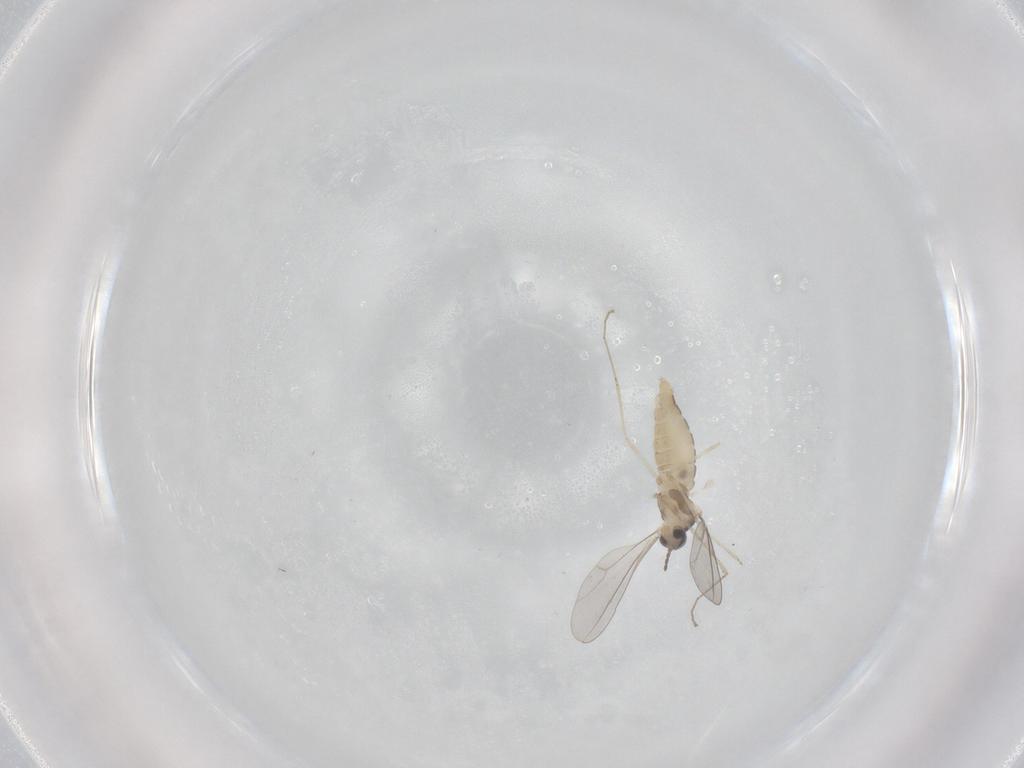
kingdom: Animalia
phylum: Arthropoda
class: Insecta
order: Diptera
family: Cecidomyiidae
